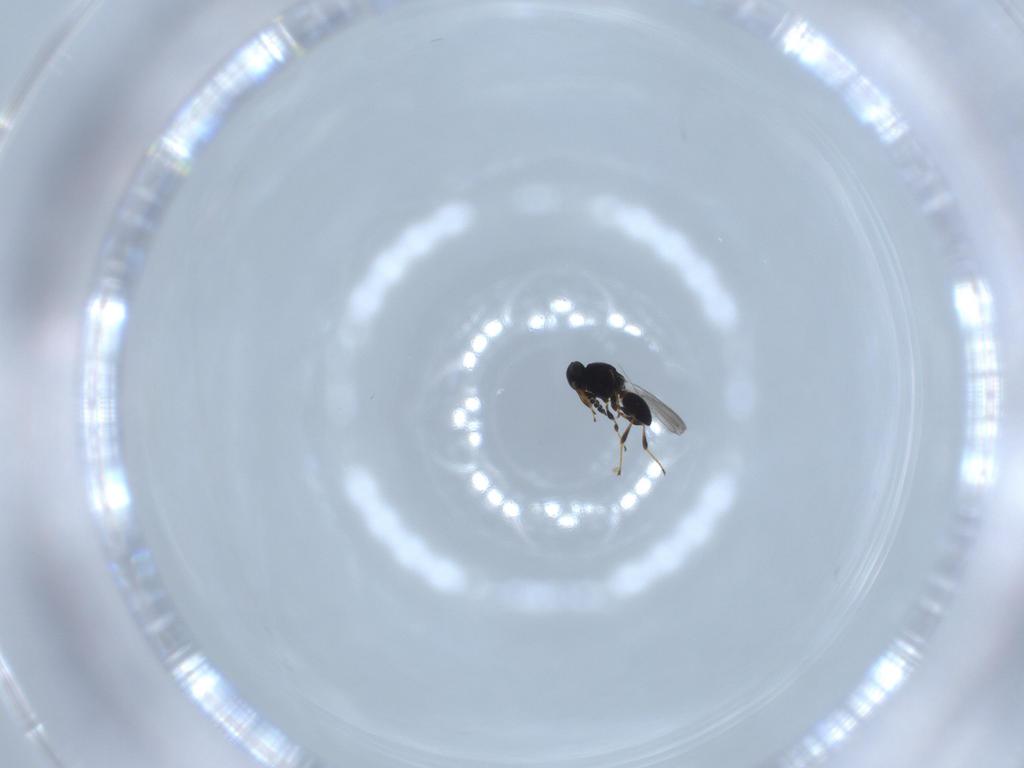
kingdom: Animalia
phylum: Arthropoda
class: Insecta
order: Hymenoptera
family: Platygastridae
